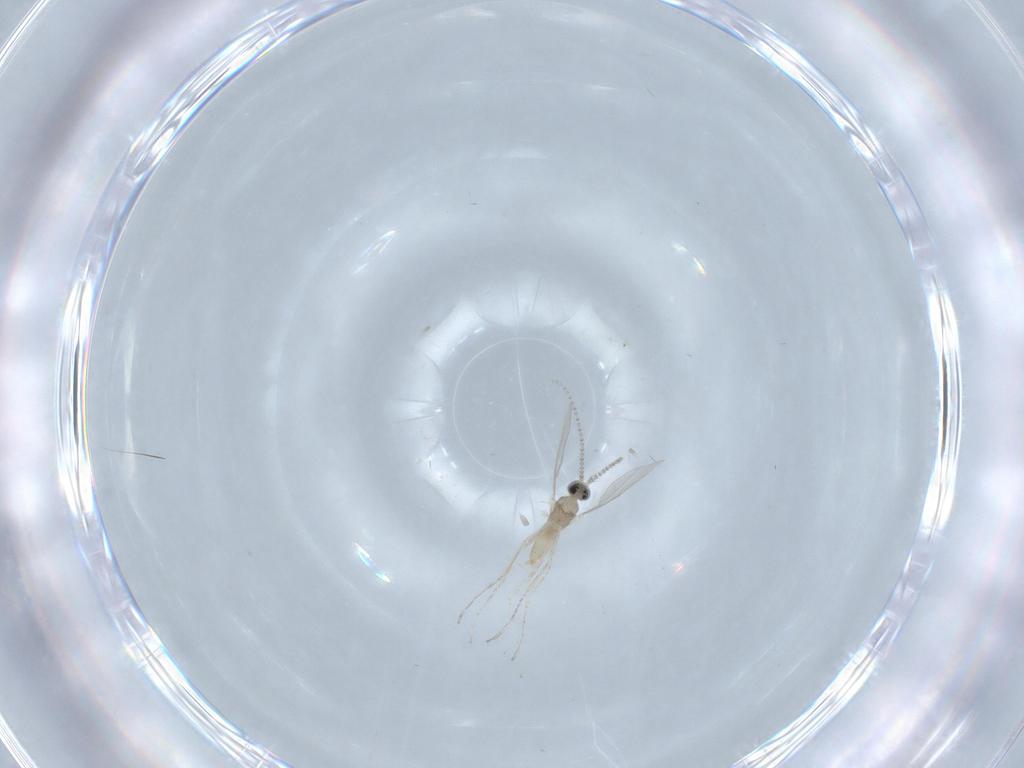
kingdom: Animalia
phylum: Arthropoda
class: Insecta
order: Diptera
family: Cecidomyiidae
